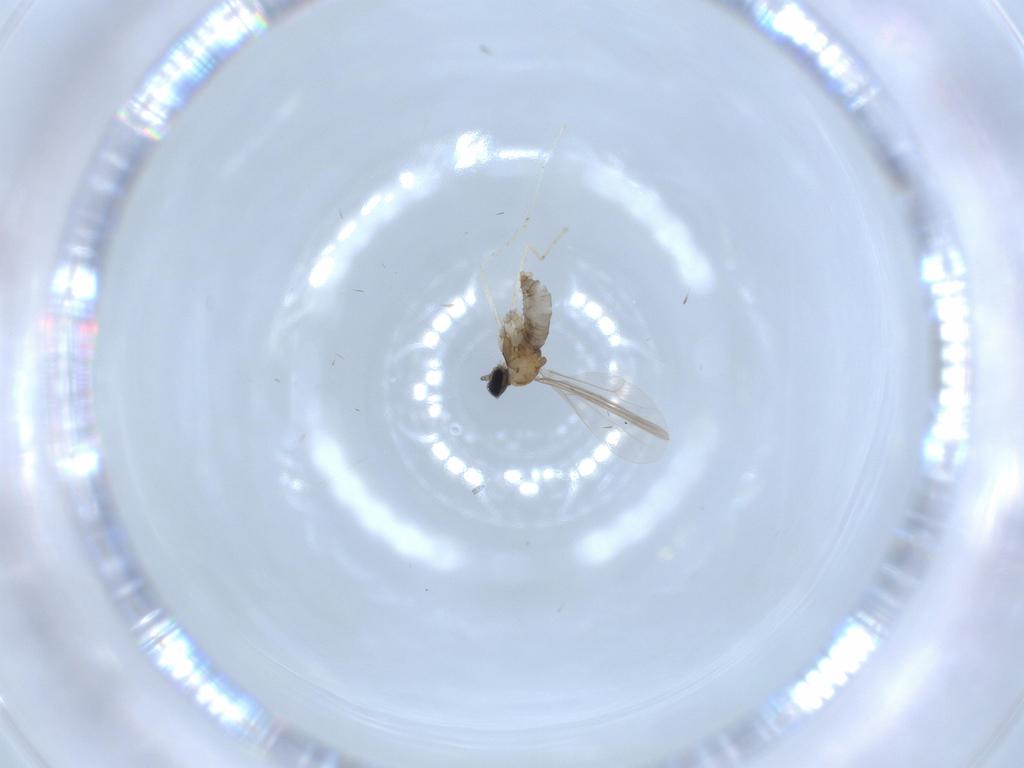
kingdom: Animalia
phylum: Arthropoda
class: Insecta
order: Diptera
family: Cecidomyiidae
